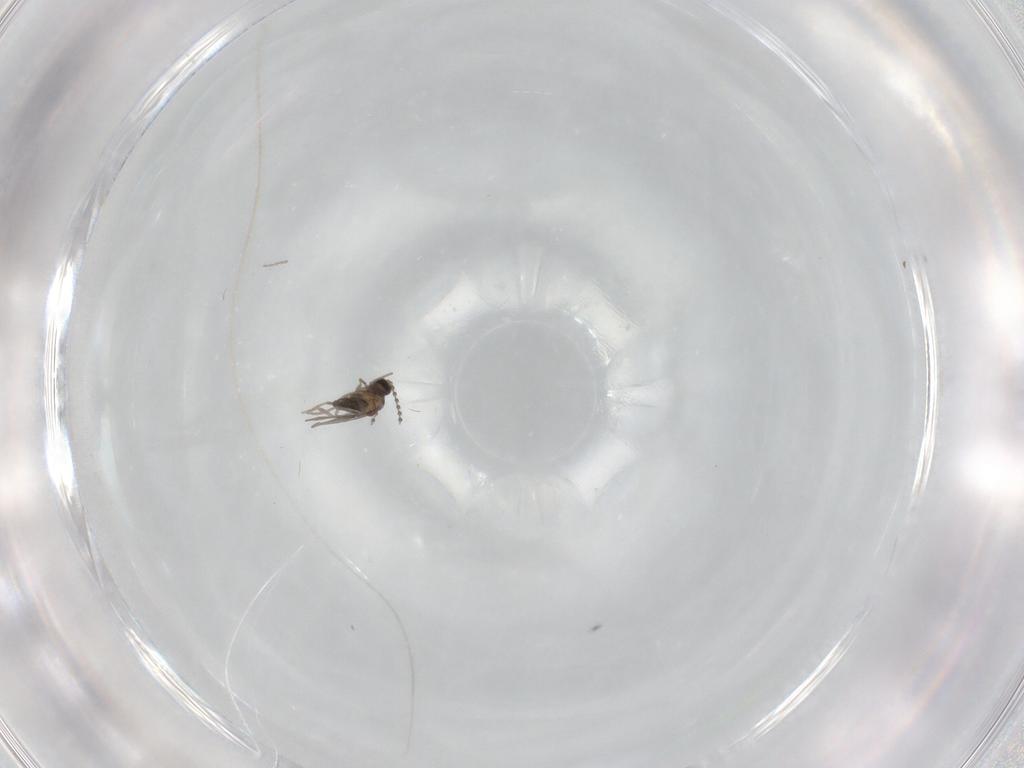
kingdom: Animalia
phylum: Arthropoda
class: Insecta
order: Diptera
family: Cecidomyiidae
